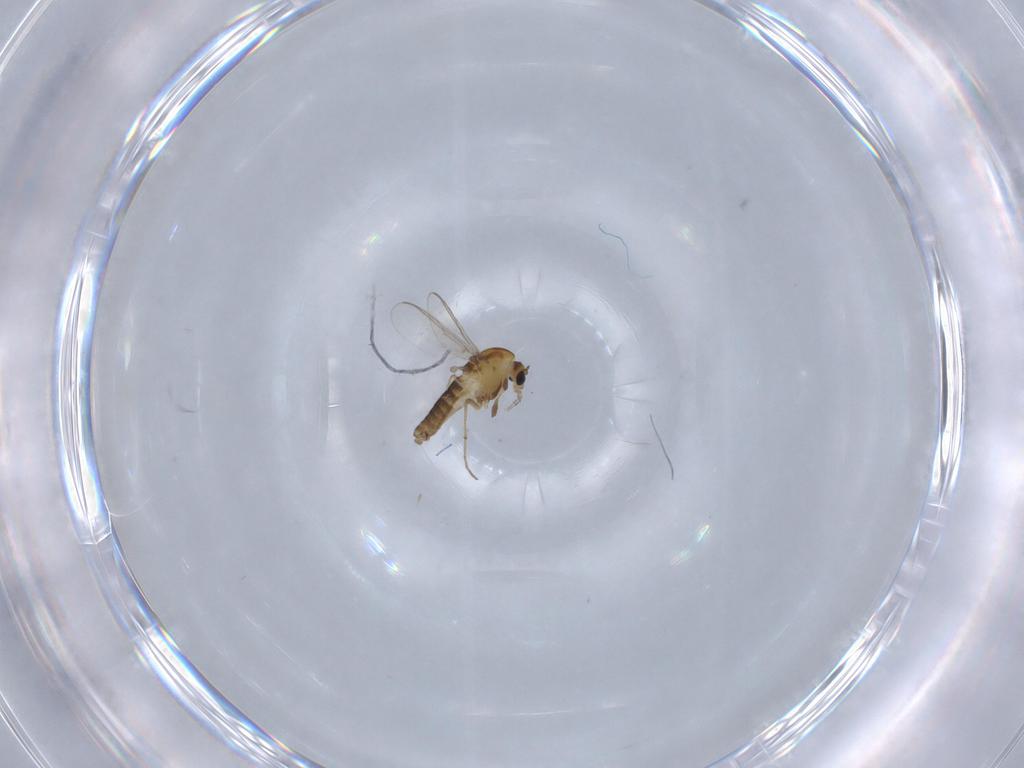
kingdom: Animalia
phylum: Arthropoda
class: Insecta
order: Diptera
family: Chironomidae
